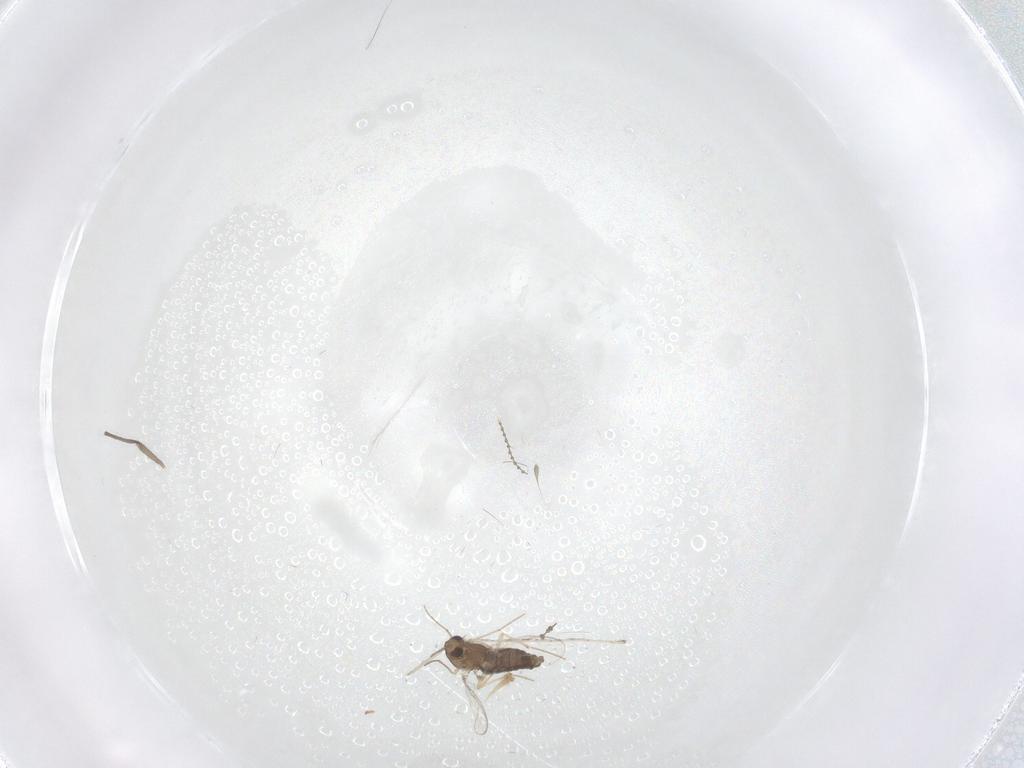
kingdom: Animalia
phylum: Arthropoda
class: Insecta
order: Diptera
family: Chironomidae
